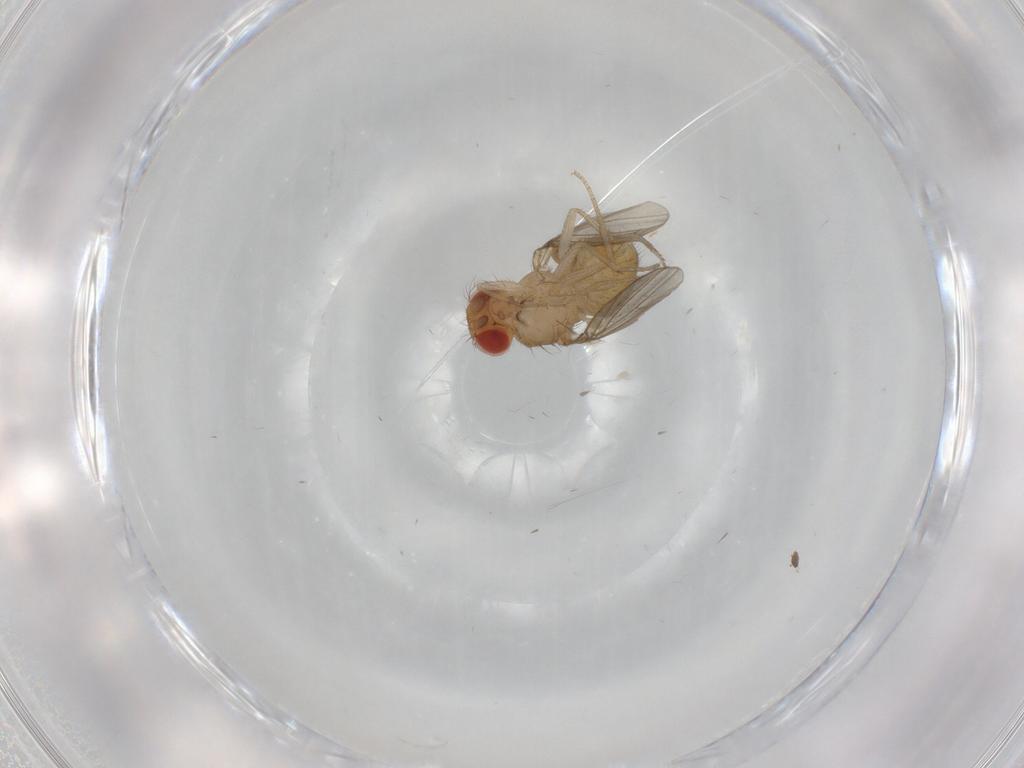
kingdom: Animalia
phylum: Arthropoda
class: Insecta
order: Diptera
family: Drosophilidae
